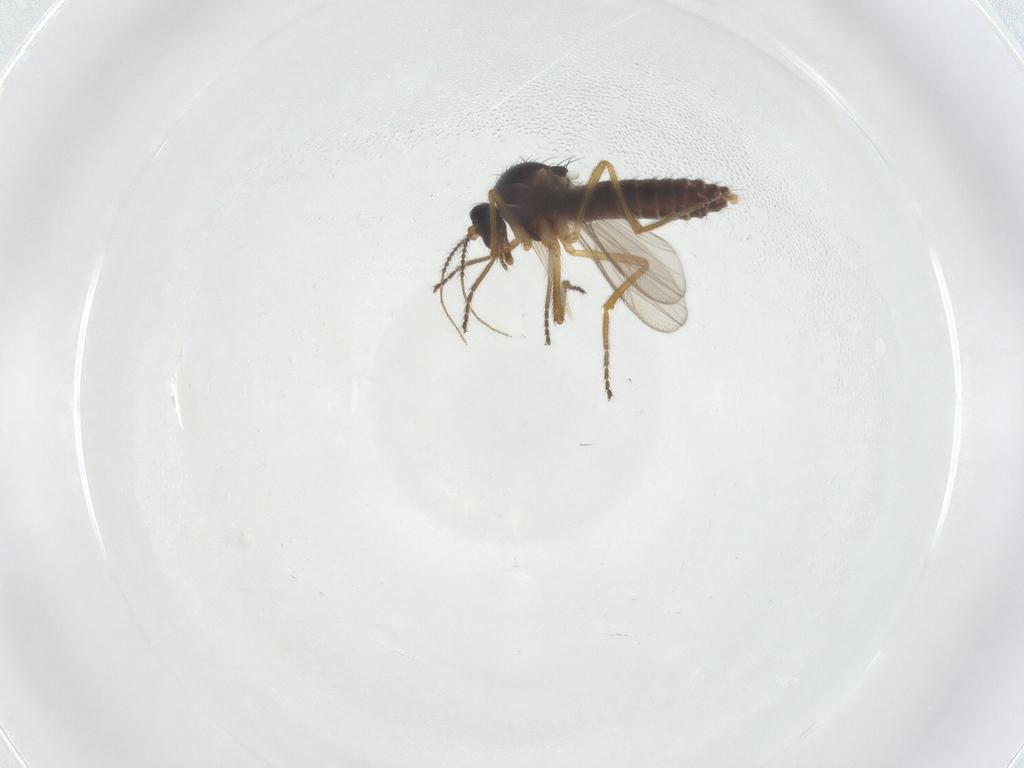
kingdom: Animalia
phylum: Arthropoda
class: Insecta
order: Diptera
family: Ceratopogonidae
